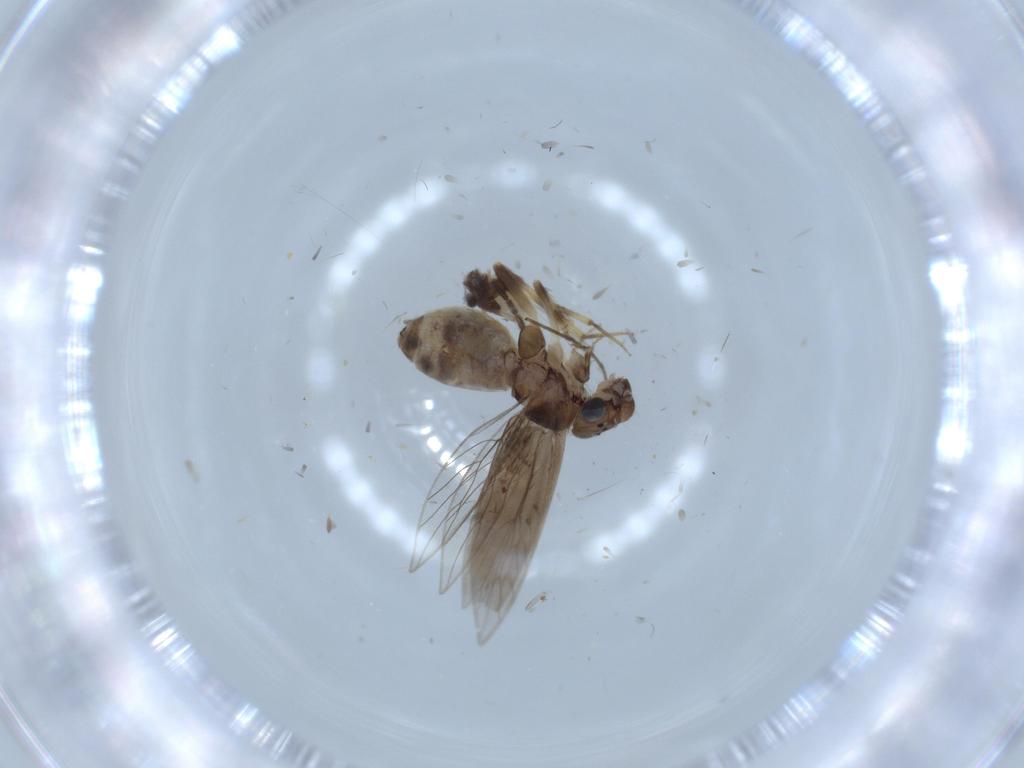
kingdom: Animalia
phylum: Arthropoda
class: Insecta
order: Psocodea
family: Lepidopsocidae
